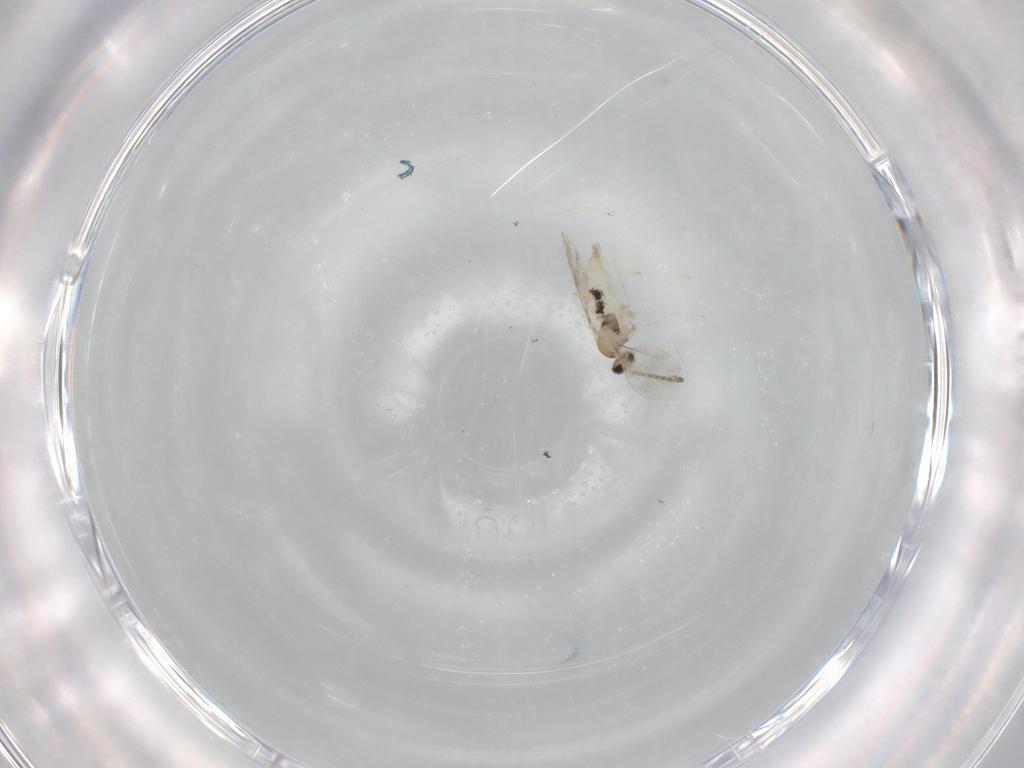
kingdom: Animalia
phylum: Arthropoda
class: Insecta
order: Diptera
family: Cecidomyiidae
